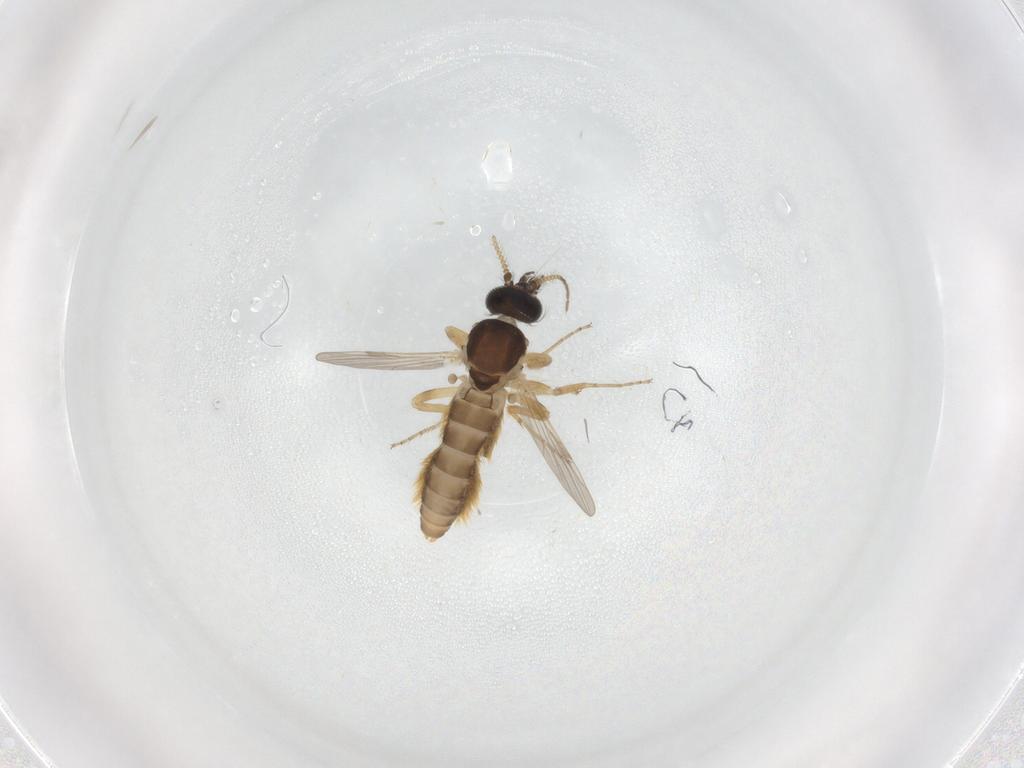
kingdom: Animalia
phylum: Arthropoda
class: Insecta
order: Diptera
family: Ceratopogonidae
